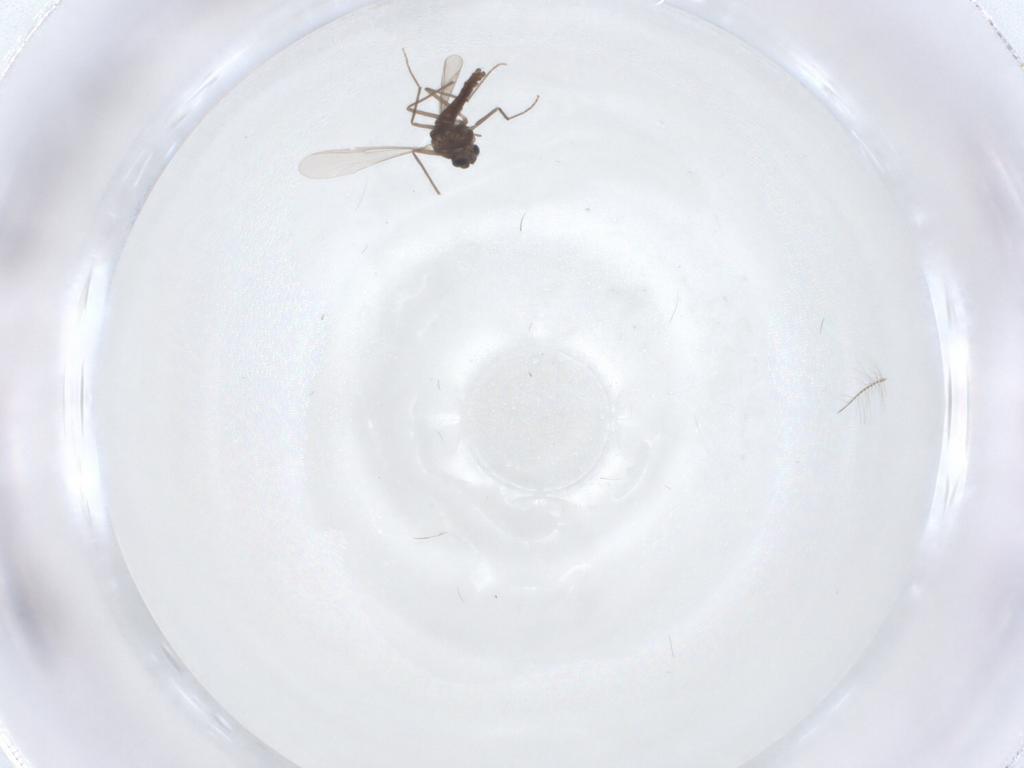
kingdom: Animalia
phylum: Arthropoda
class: Insecta
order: Diptera
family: Chironomidae
